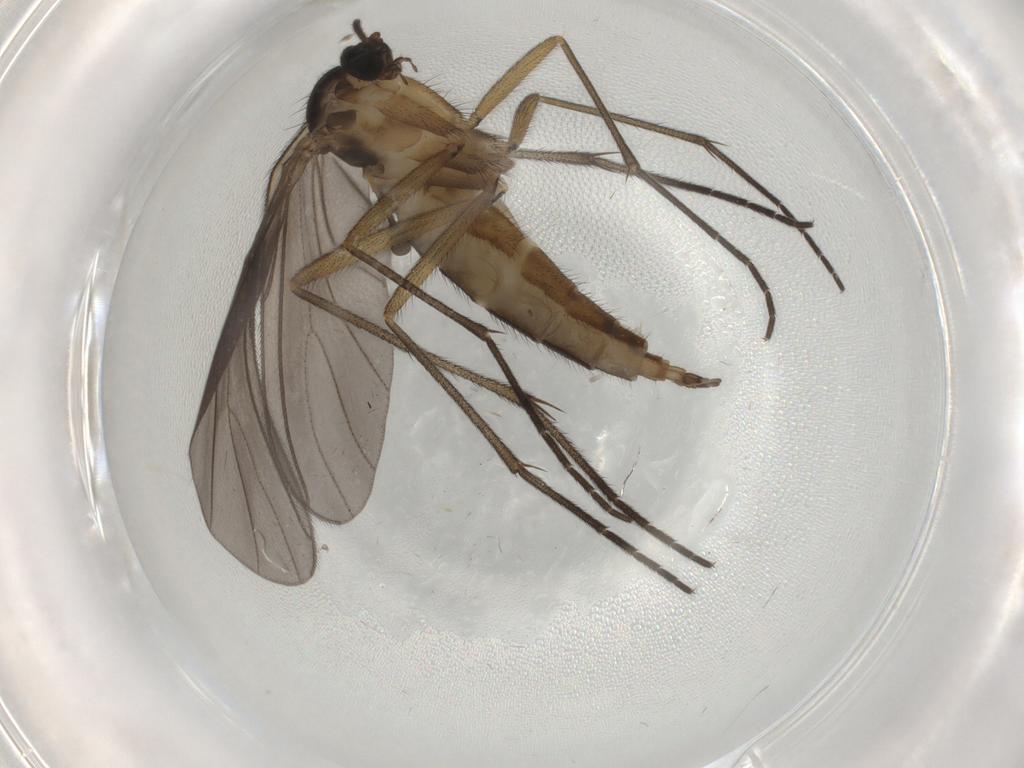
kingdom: Animalia
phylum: Arthropoda
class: Insecta
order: Diptera
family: Sciaridae
